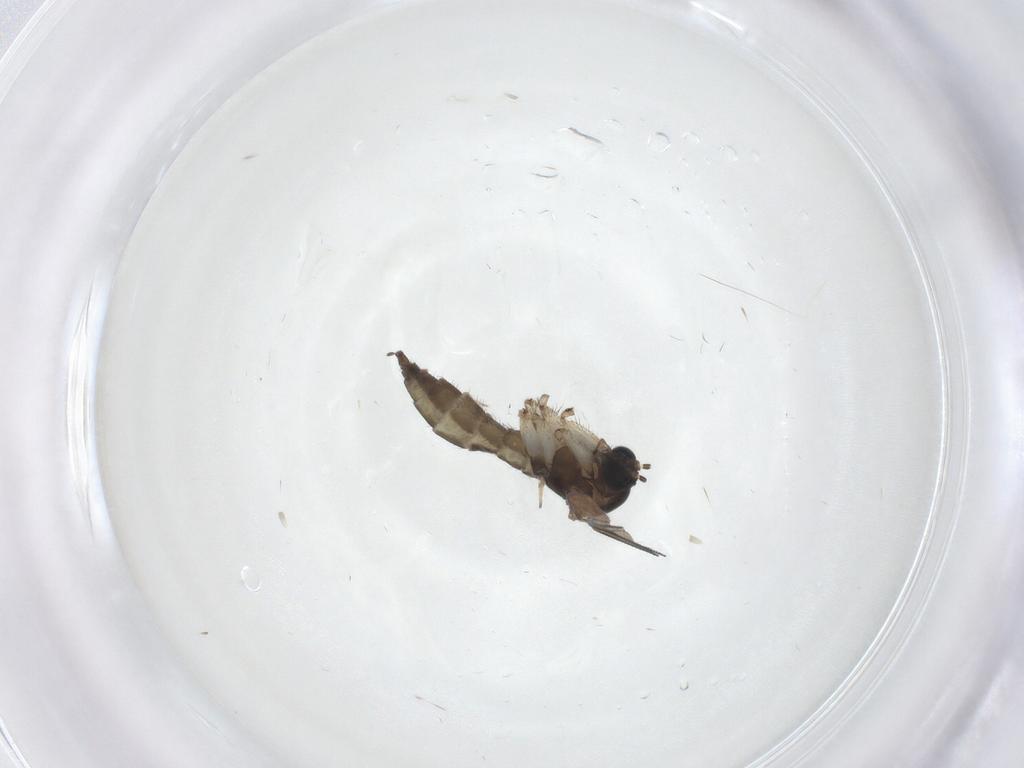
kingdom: Animalia
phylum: Arthropoda
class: Insecta
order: Diptera
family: Sciaridae
